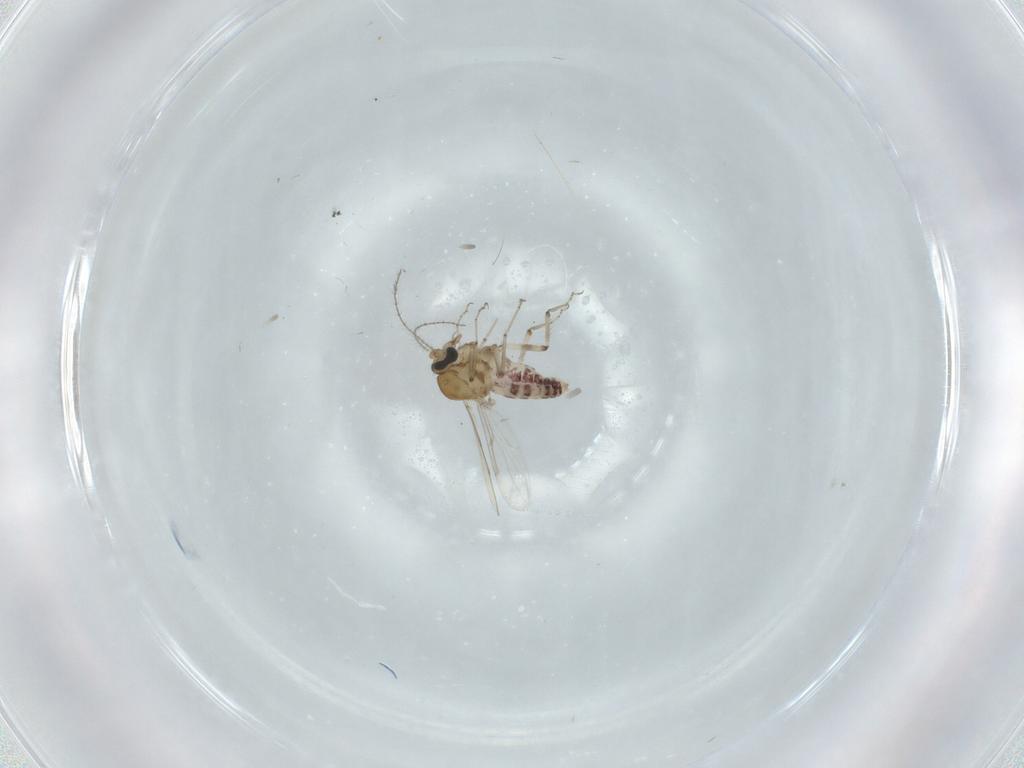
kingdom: Animalia
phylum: Arthropoda
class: Insecta
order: Diptera
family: Ceratopogonidae
